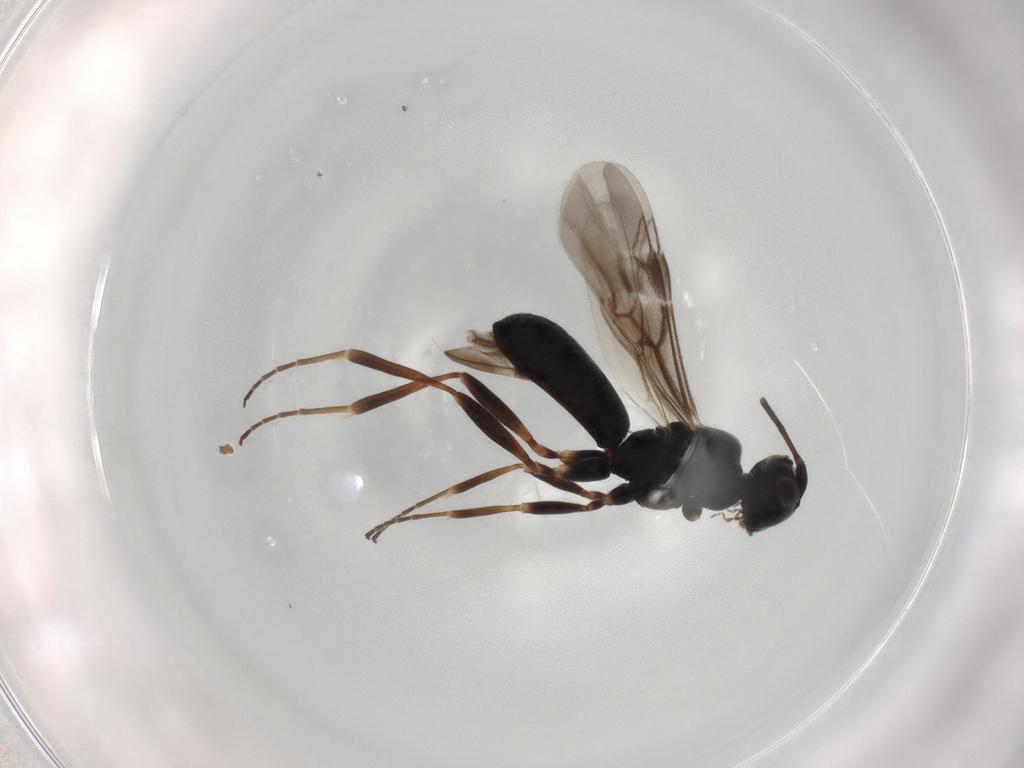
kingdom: Animalia
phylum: Arthropoda
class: Insecta
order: Hymenoptera
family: Braconidae
